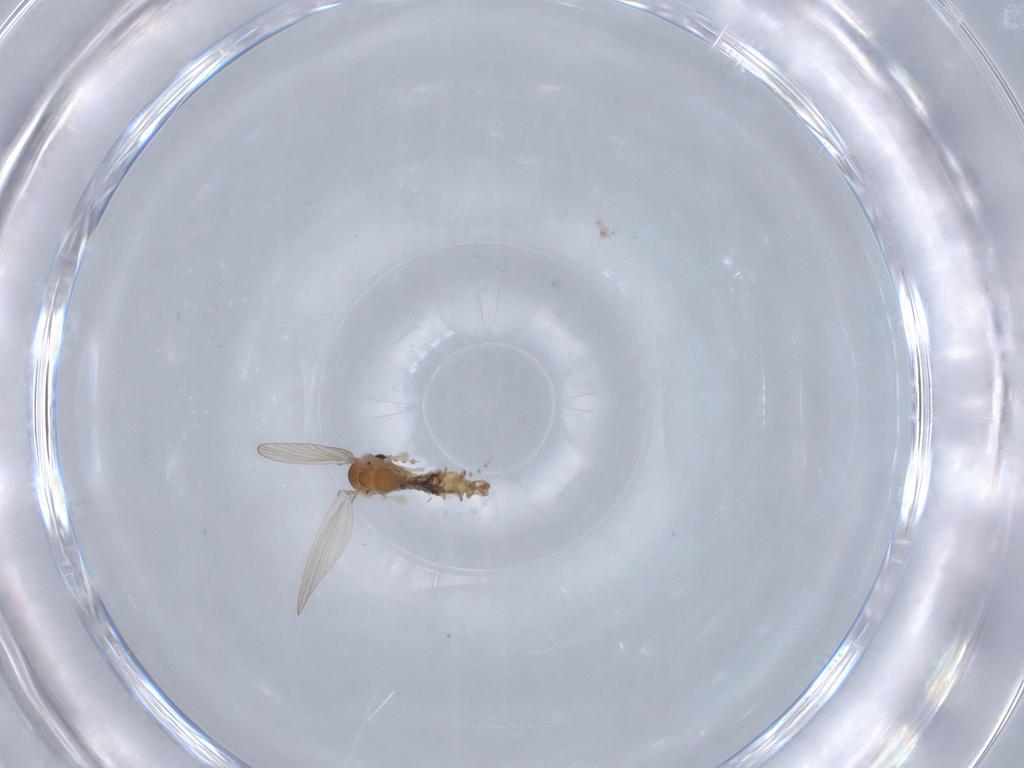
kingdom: Animalia
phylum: Arthropoda
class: Insecta
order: Diptera
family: Psychodidae
